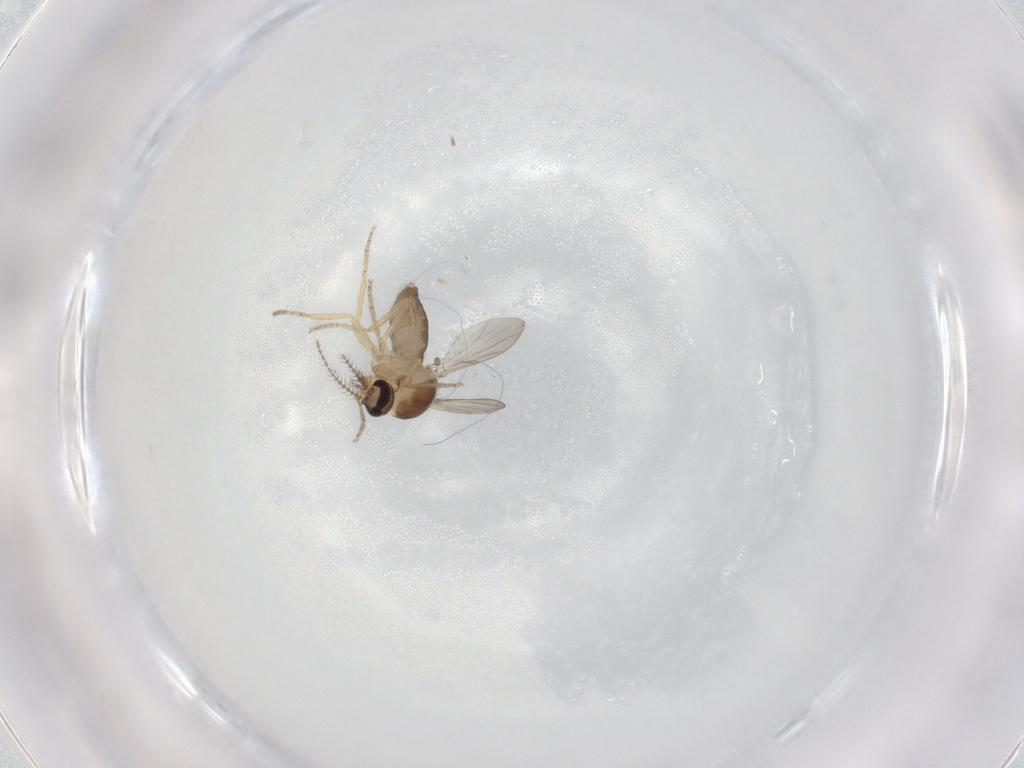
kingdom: Animalia
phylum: Arthropoda
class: Insecta
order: Diptera
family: Ceratopogonidae
